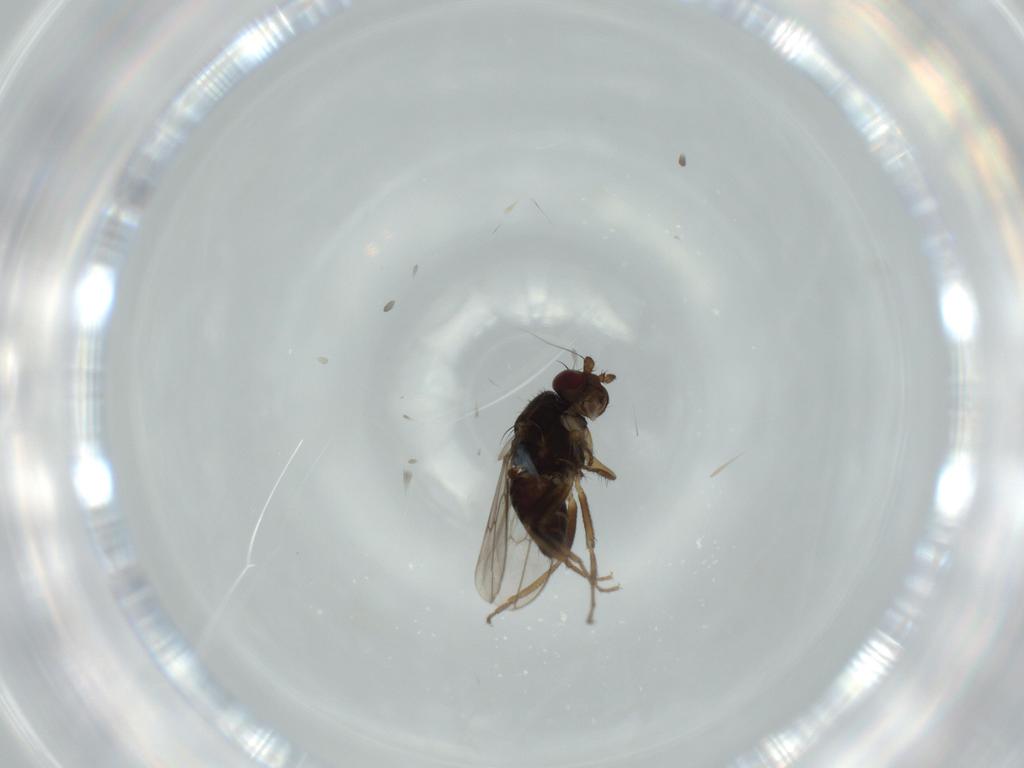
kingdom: Animalia
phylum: Arthropoda
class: Insecta
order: Diptera
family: Sphaeroceridae
